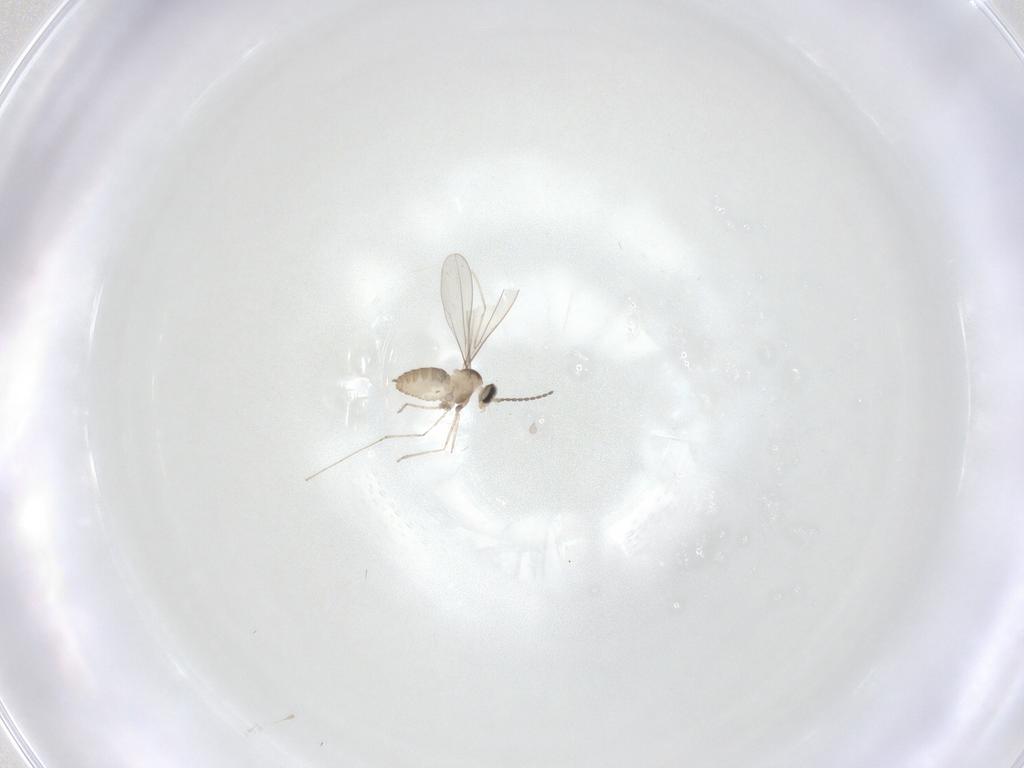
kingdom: Animalia
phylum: Arthropoda
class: Insecta
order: Diptera
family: Cecidomyiidae
